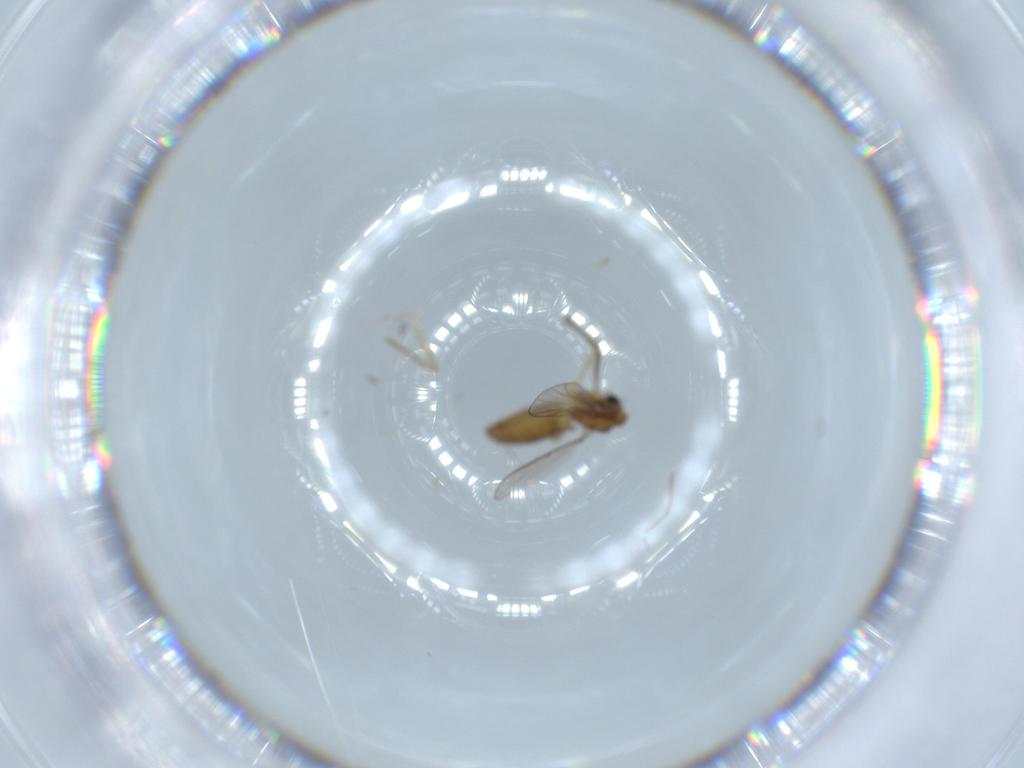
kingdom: Animalia
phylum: Arthropoda
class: Insecta
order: Diptera
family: Chironomidae
